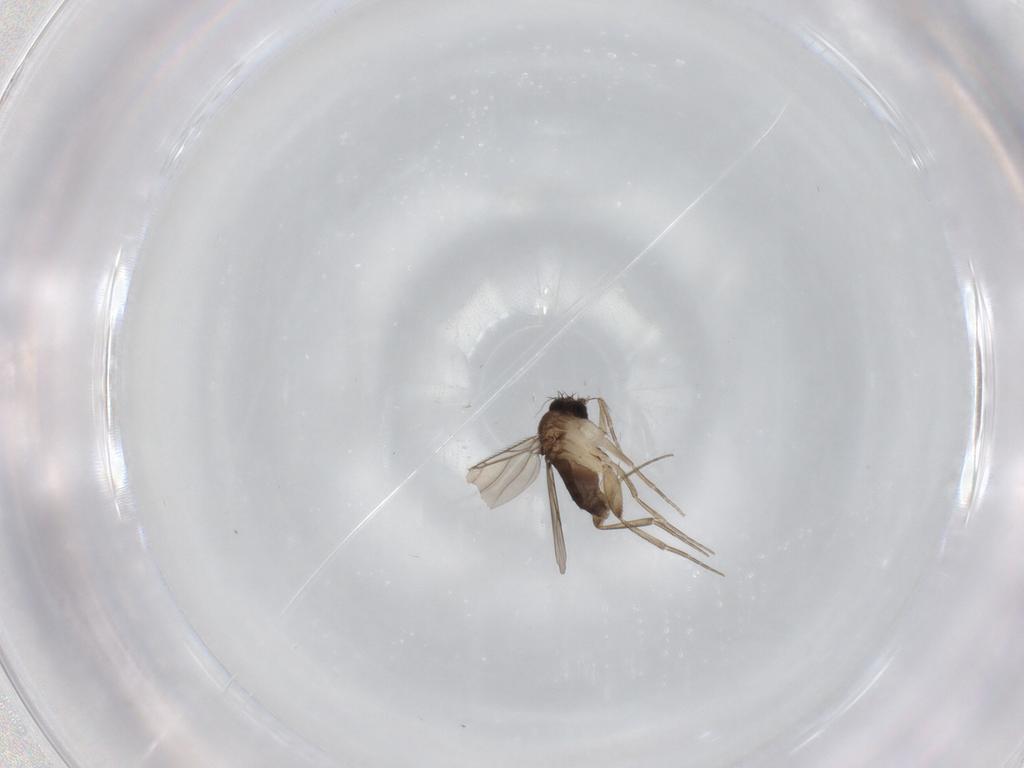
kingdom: Animalia
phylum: Arthropoda
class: Insecta
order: Diptera
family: Phoridae
